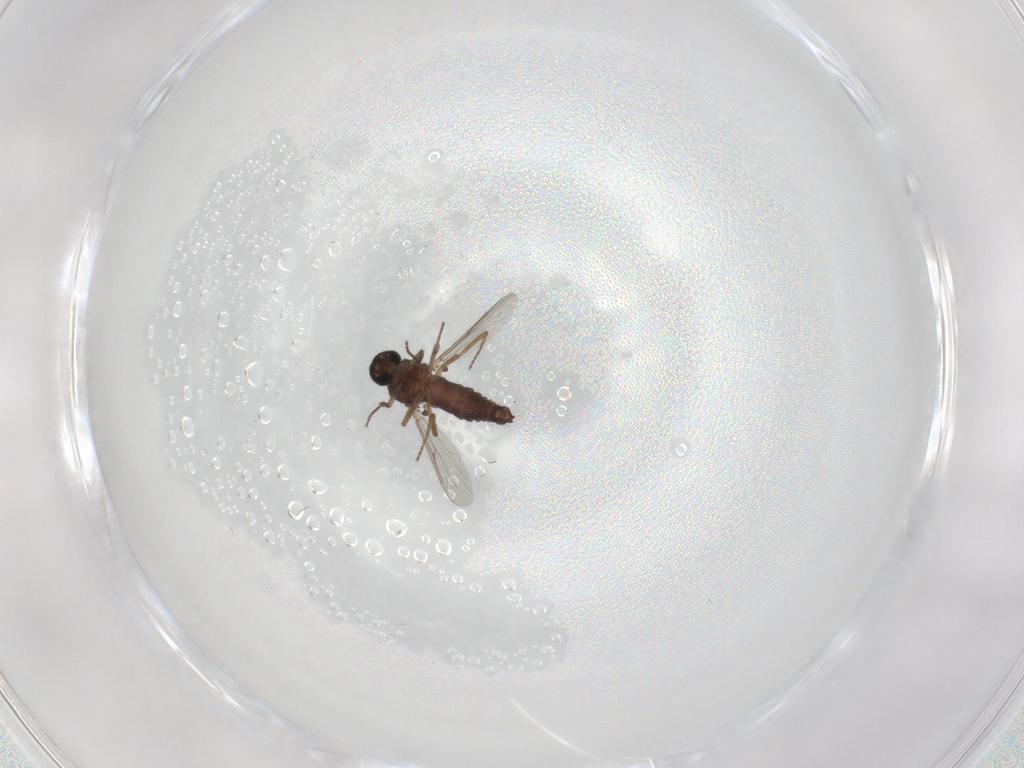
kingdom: Animalia
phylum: Arthropoda
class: Insecta
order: Diptera
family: Ceratopogonidae
